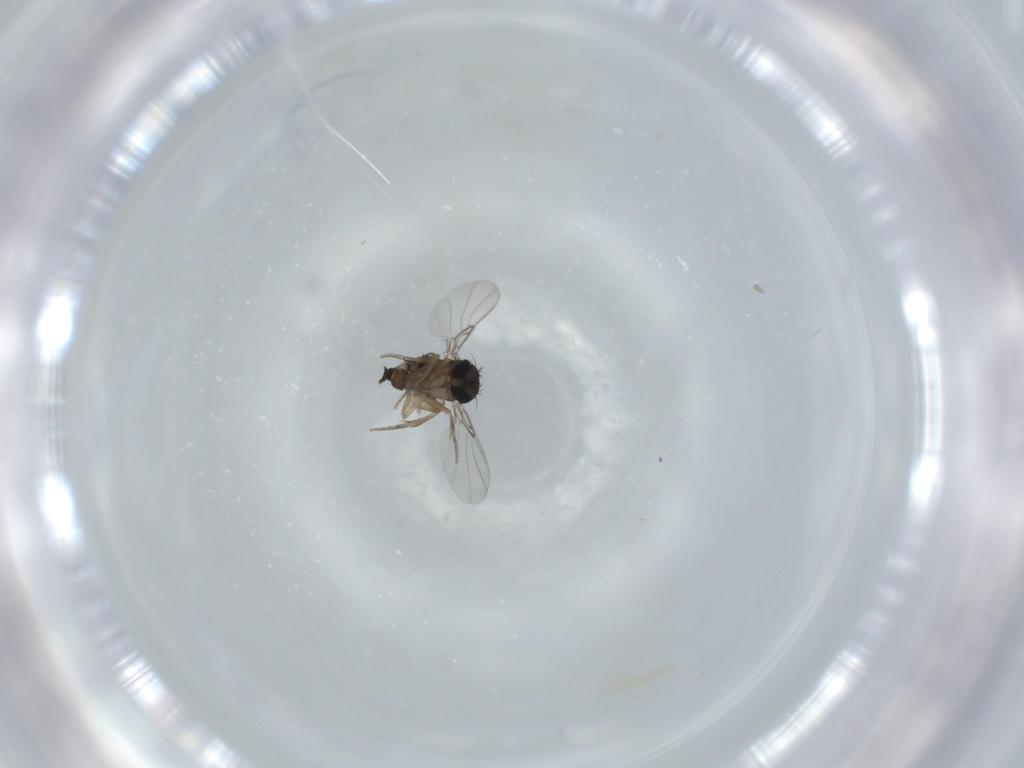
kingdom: Animalia
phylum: Arthropoda
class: Insecta
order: Diptera
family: Phoridae
